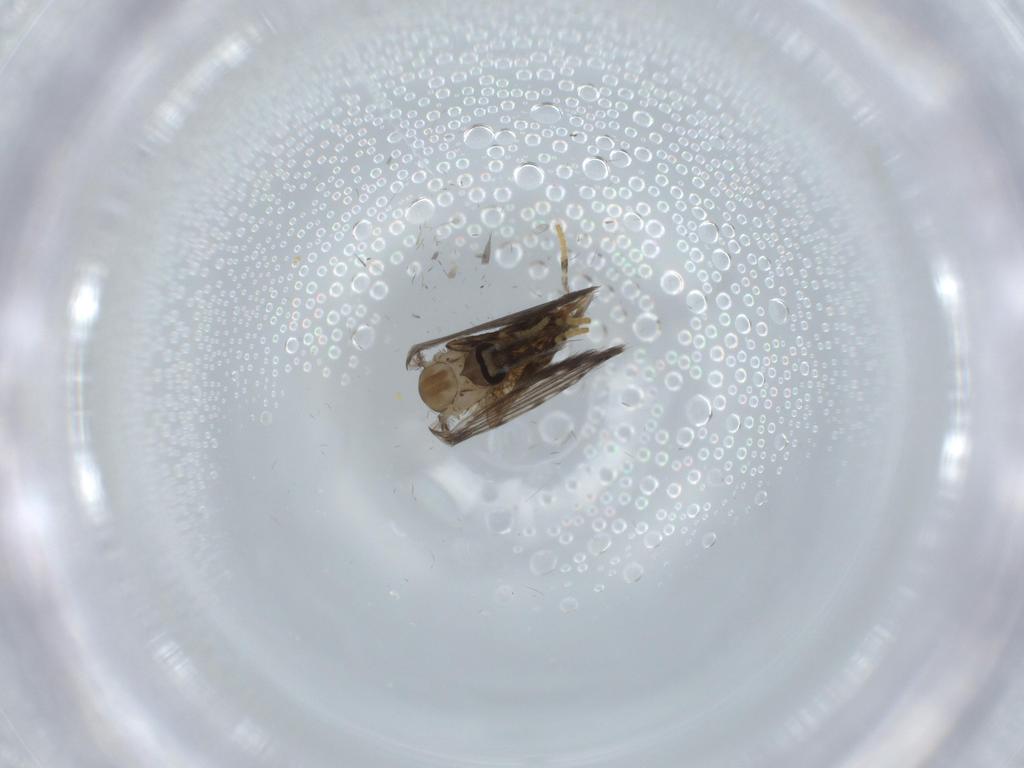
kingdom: Animalia
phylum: Arthropoda
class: Insecta
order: Diptera
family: Psychodidae
